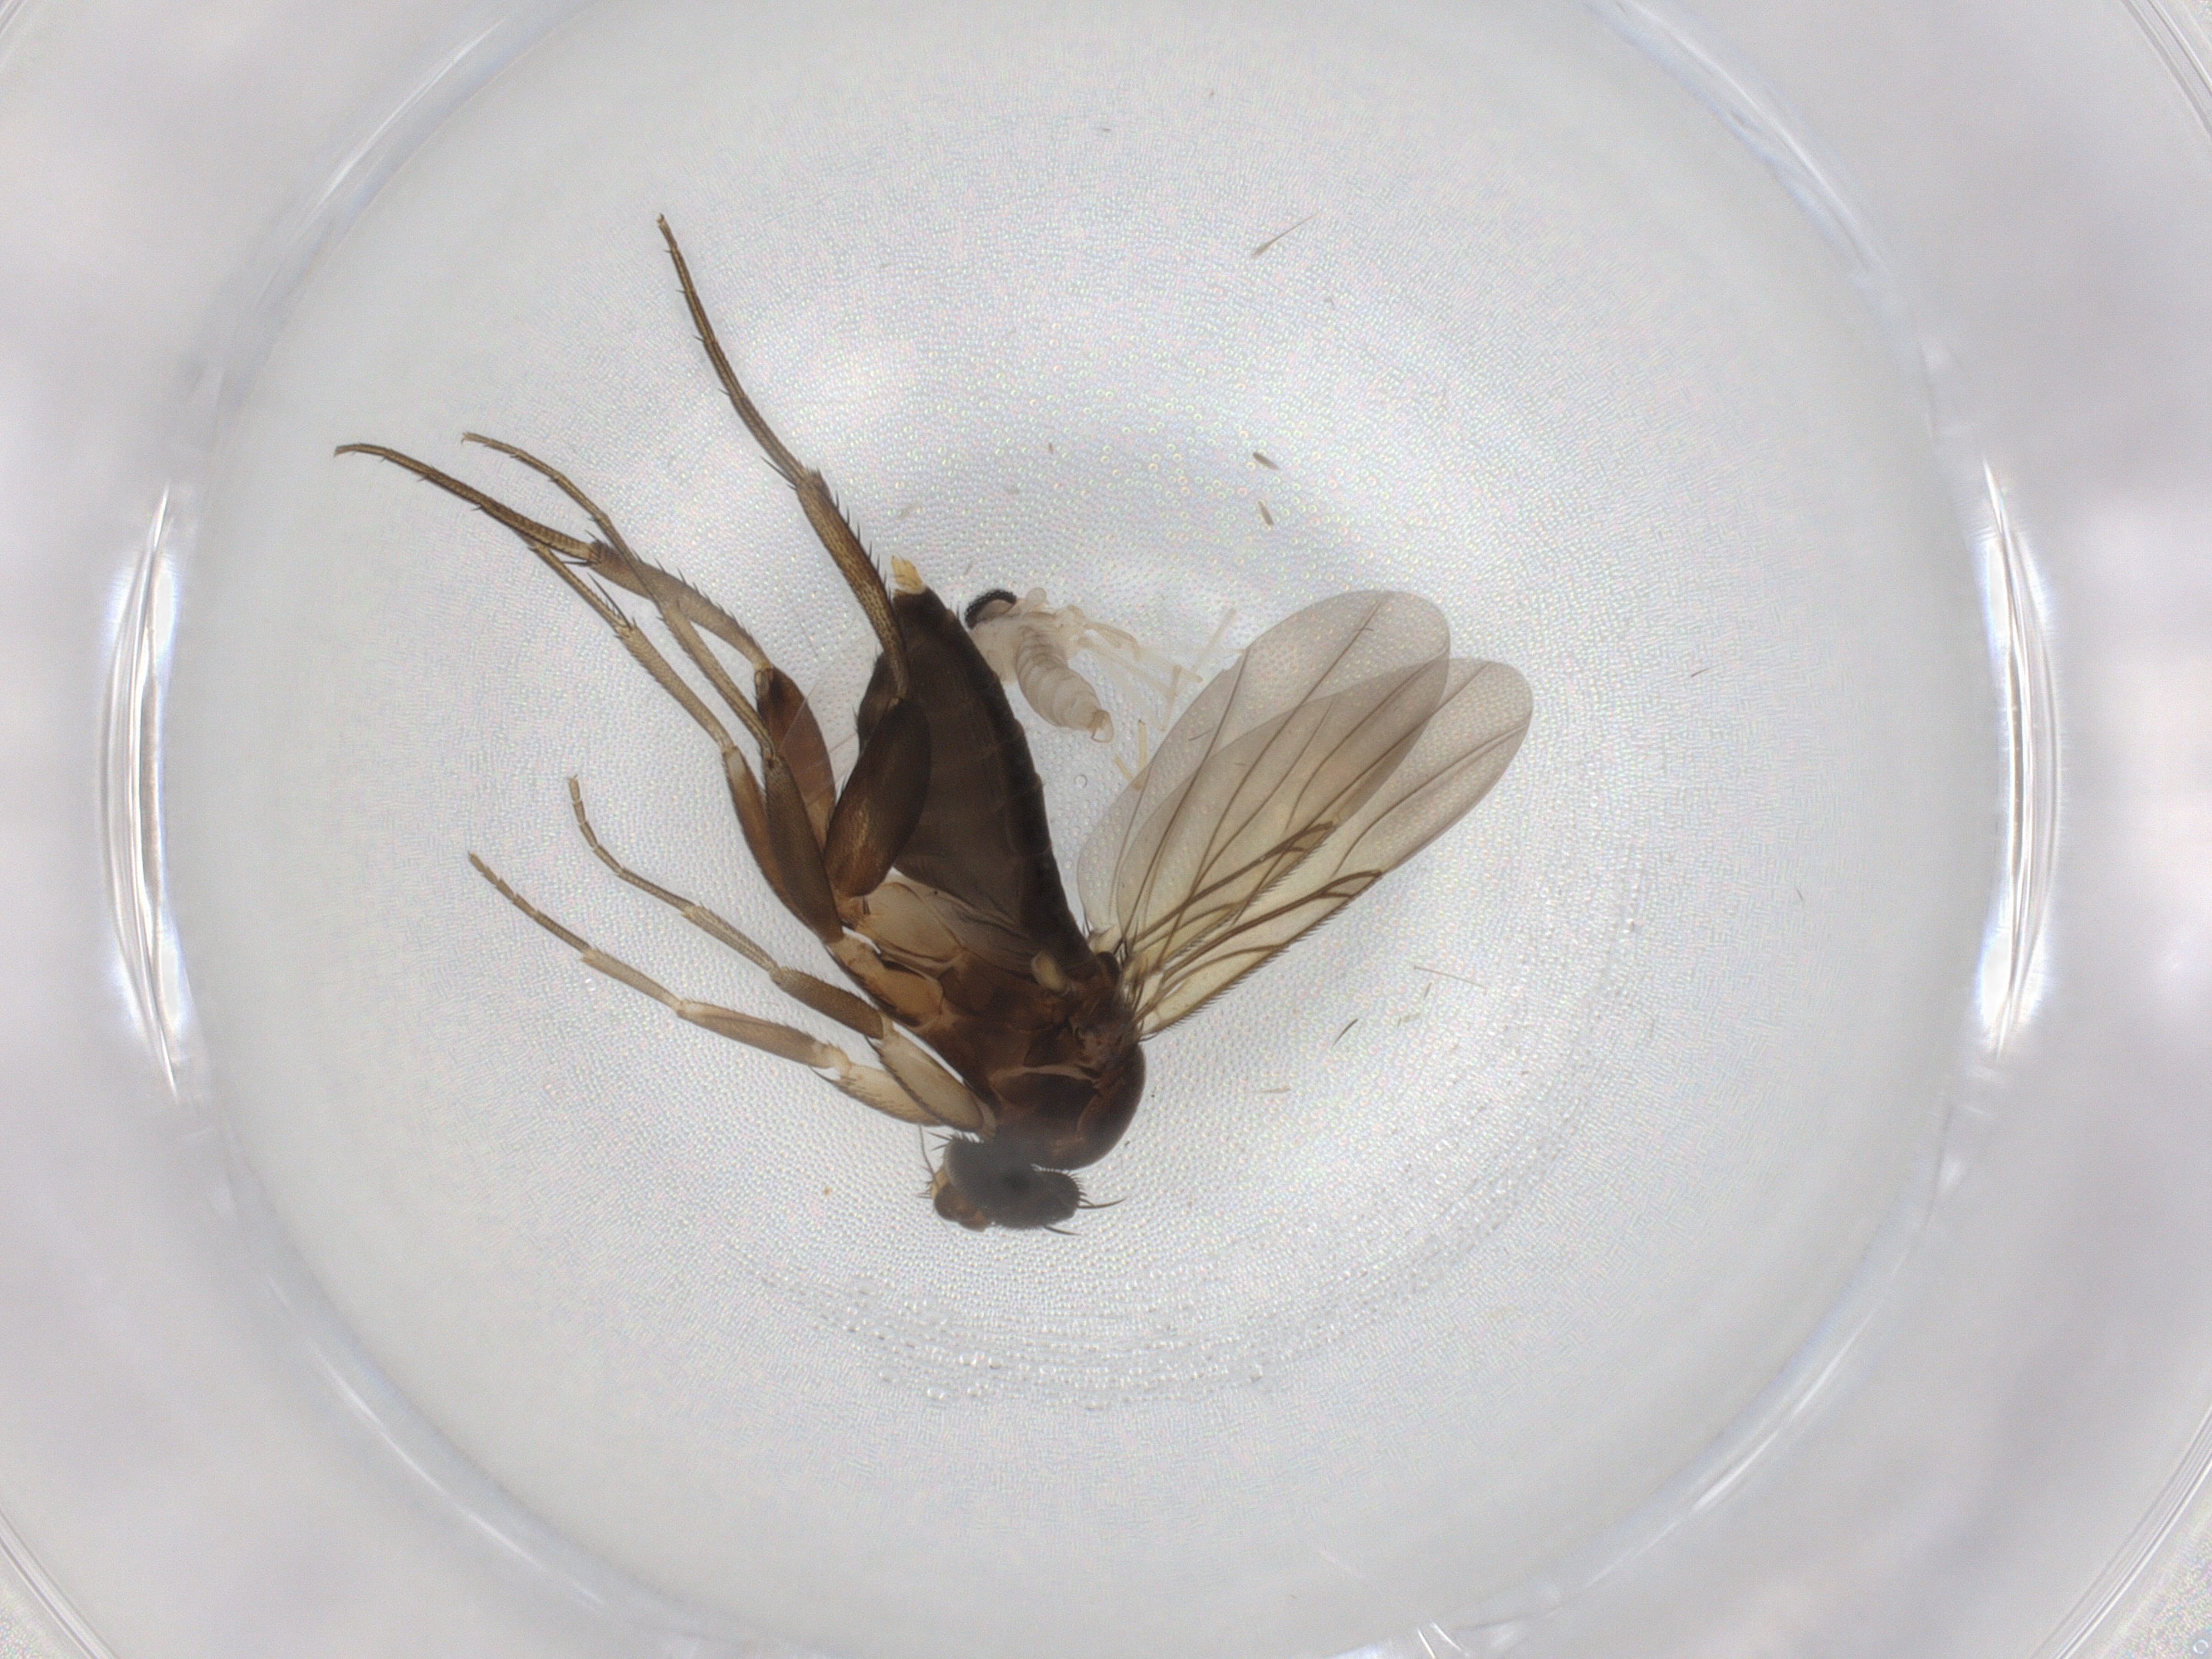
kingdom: Animalia
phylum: Arthropoda
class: Insecta
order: Diptera
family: Phoridae
